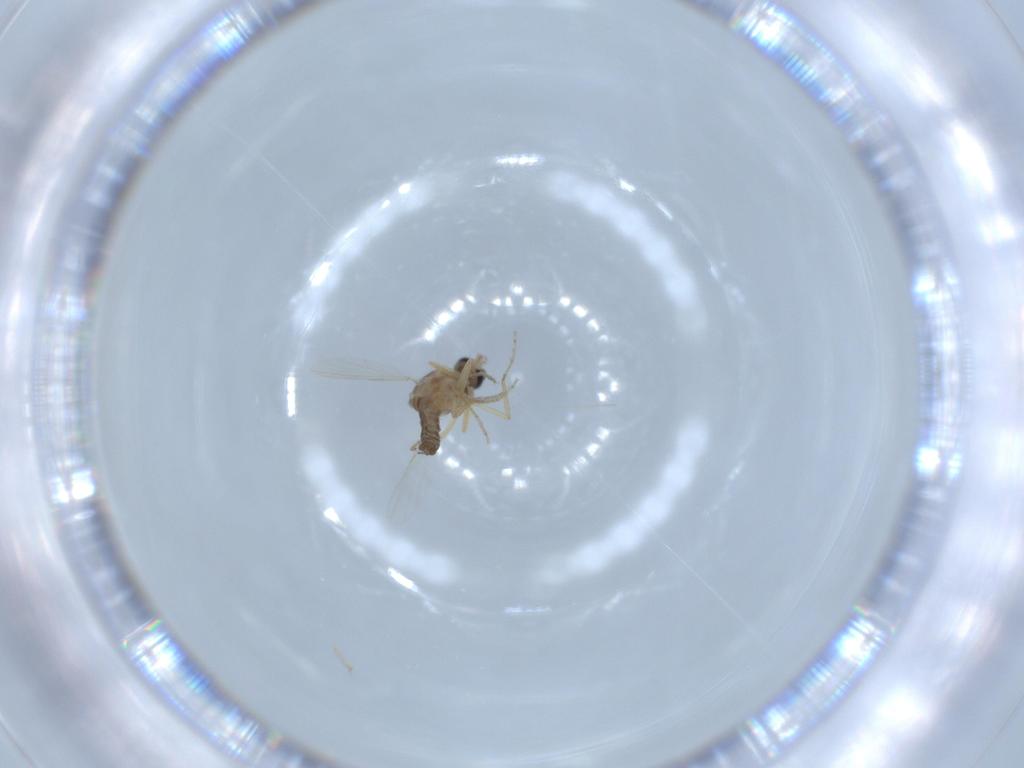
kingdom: Animalia
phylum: Arthropoda
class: Insecta
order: Diptera
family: Ceratopogonidae
